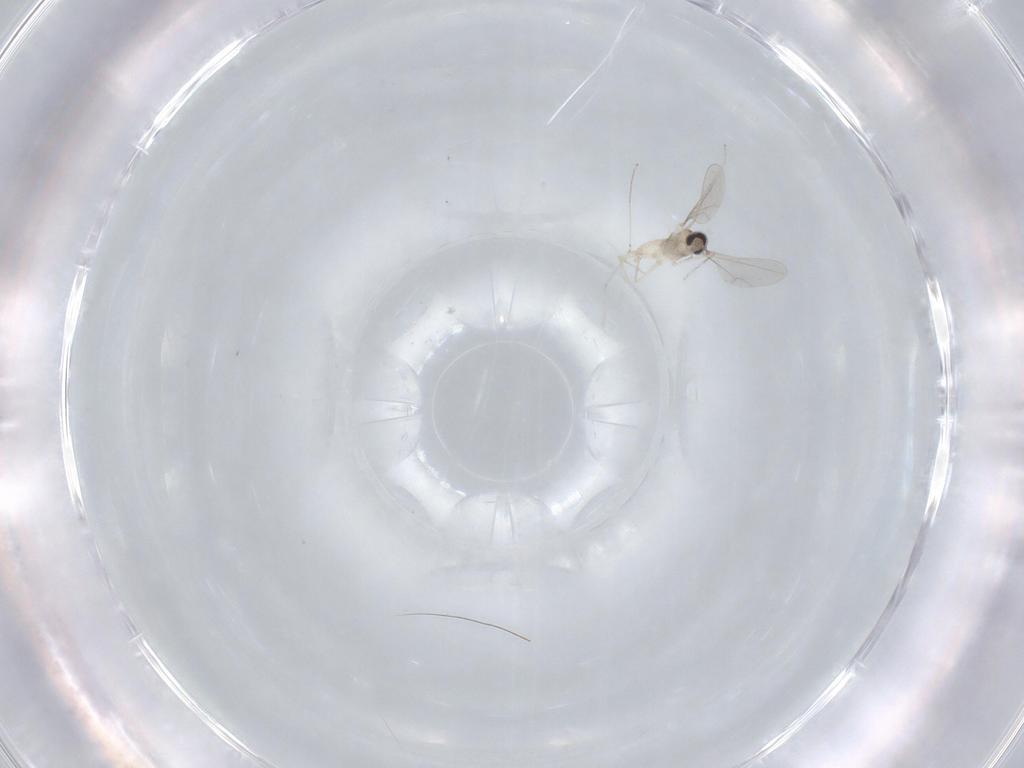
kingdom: Animalia
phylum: Arthropoda
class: Insecta
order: Diptera
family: Cecidomyiidae
